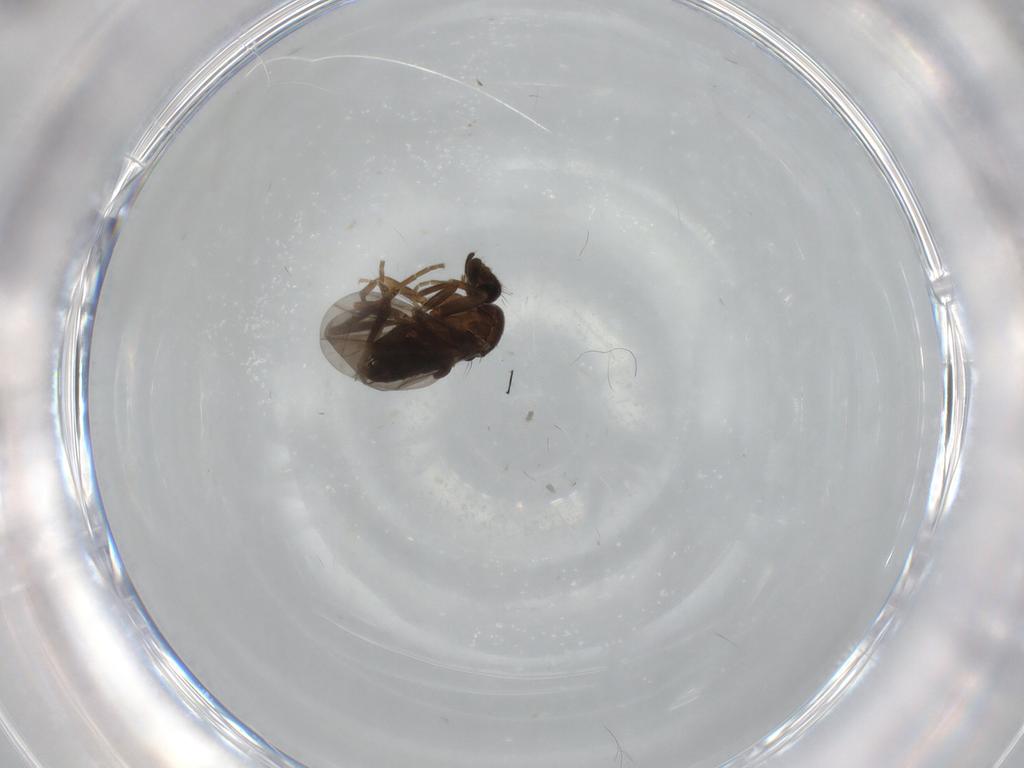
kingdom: Animalia
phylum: Arthropoda
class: Insecta
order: Diptera
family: Phoridae
